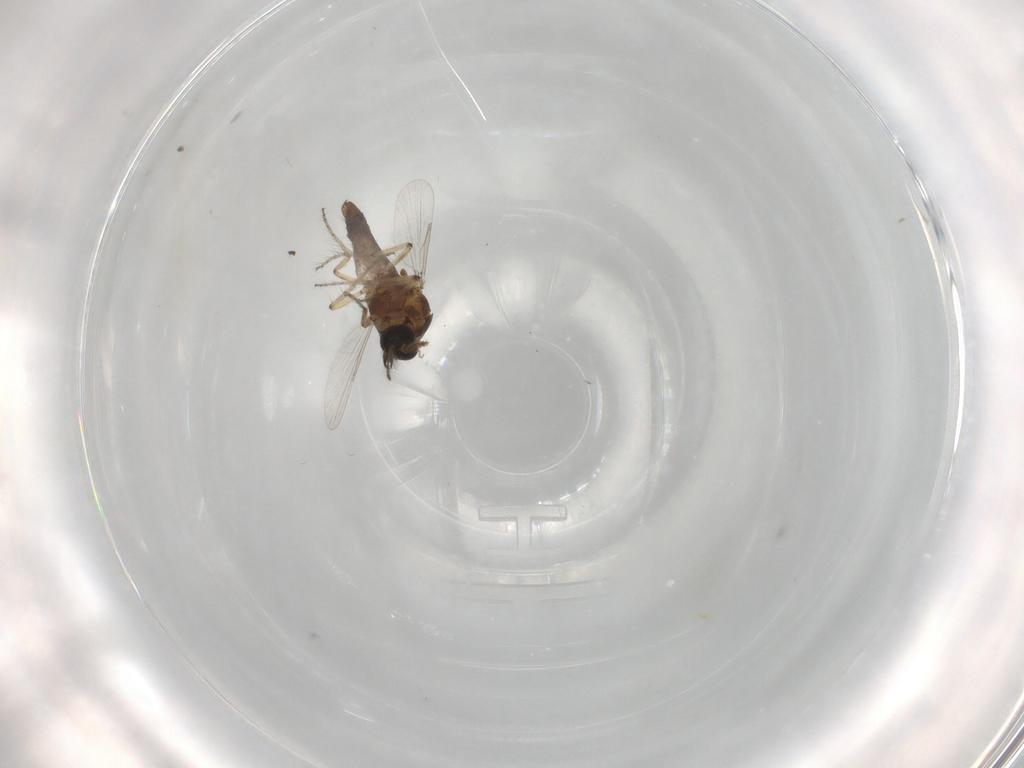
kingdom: Animalia
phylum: Arthropoda
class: Insecta
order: Diptera
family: Ceratopogonidae
